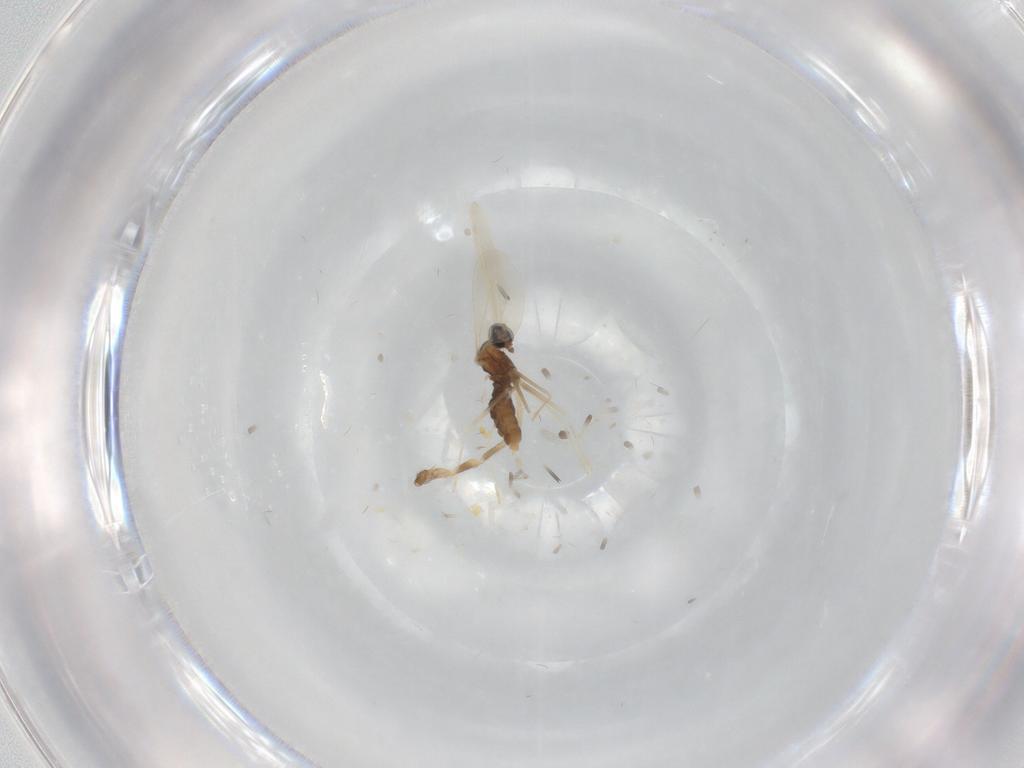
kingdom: Animalia
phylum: Arthropoda
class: Insecta
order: Diptera
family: Cecidomyiidae
